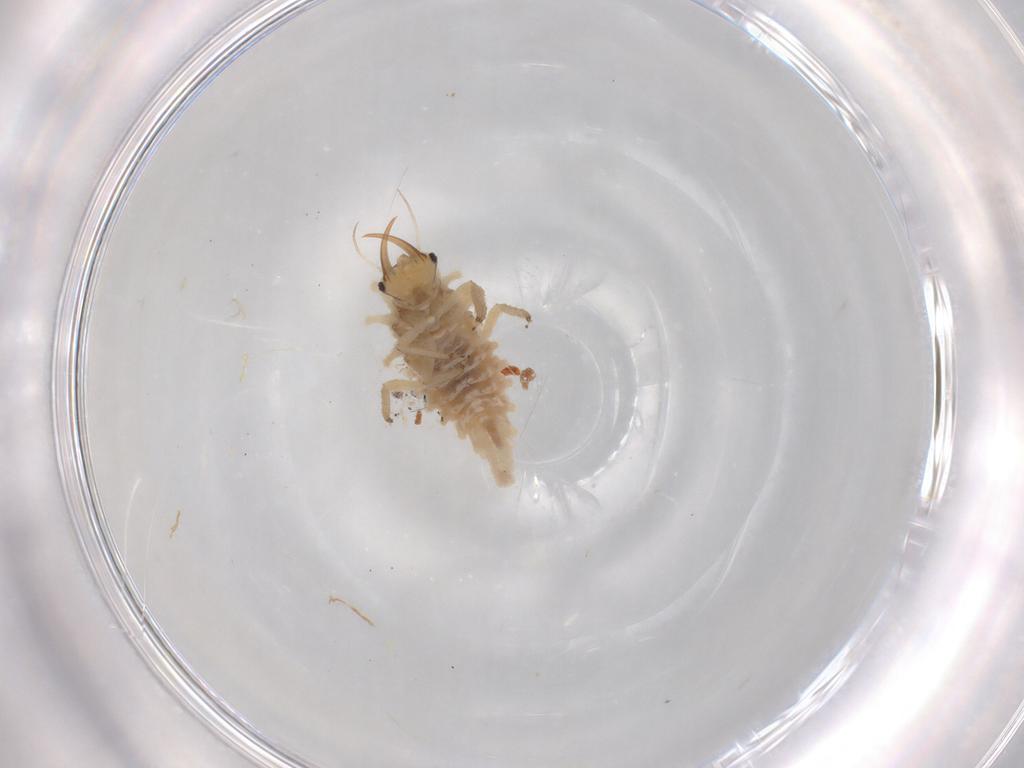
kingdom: Animalia
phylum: Arthropoda
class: Insecta
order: Neuroptera
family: Chrysopidae
